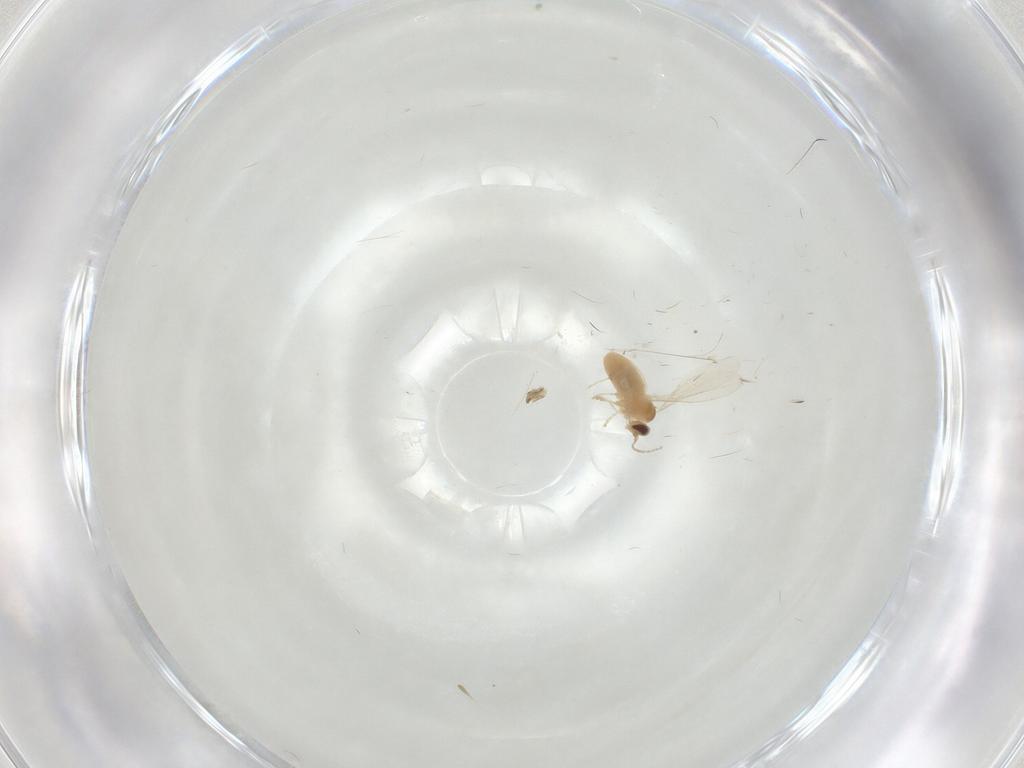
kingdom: Animalia
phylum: Arthropoda
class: Insecta
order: Diptera
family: Cecidomyiidae
